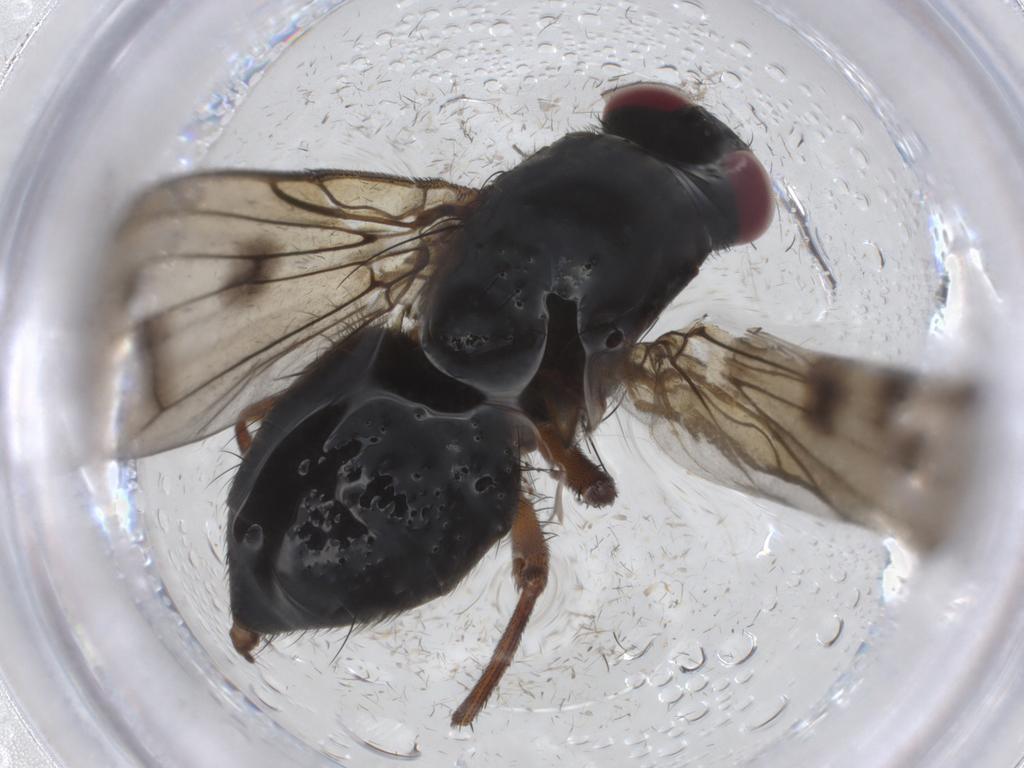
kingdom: Animalia
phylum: Arthropoda
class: Insecta
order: Diptera
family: Muscidae
